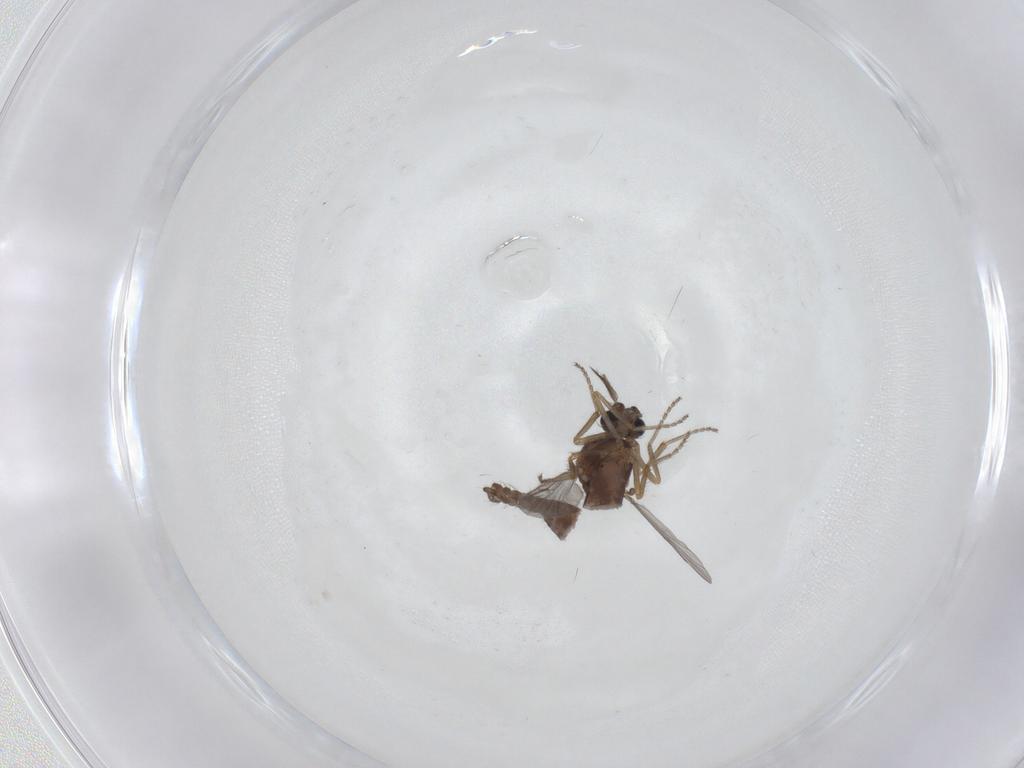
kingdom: Animalia
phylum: Arthropoda
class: Insecta
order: Diptera
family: Ceratopogonidae
